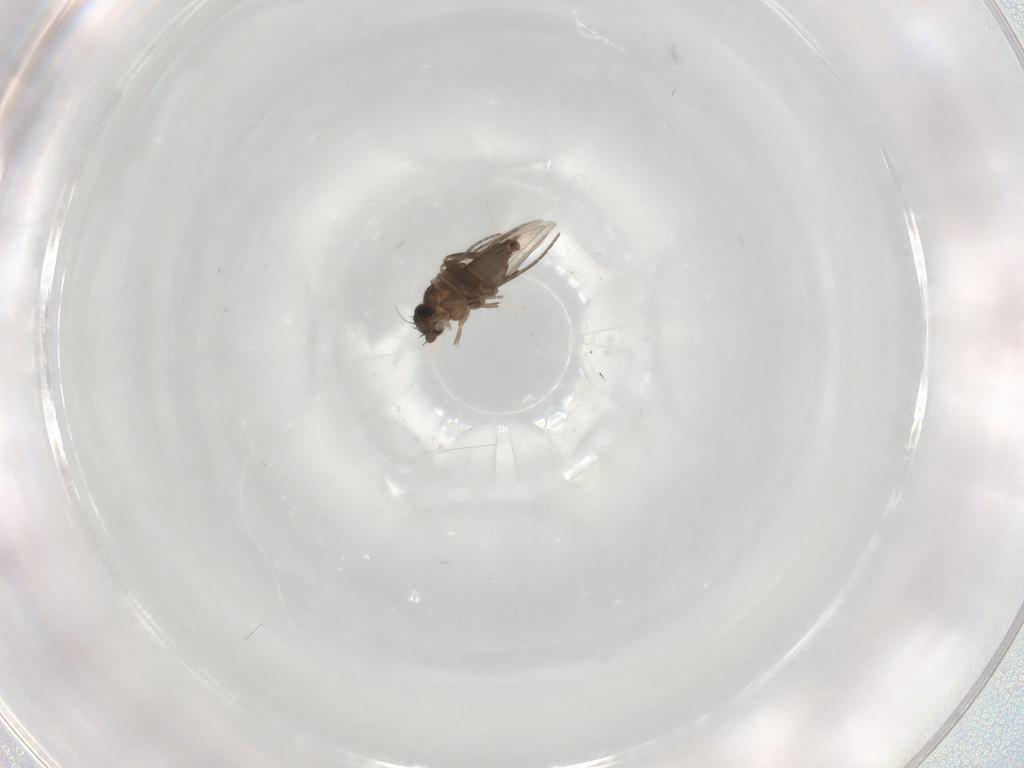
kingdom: Animalia
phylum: Arthropoda
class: Insecta
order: Diptera
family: Cecidomyiidae
